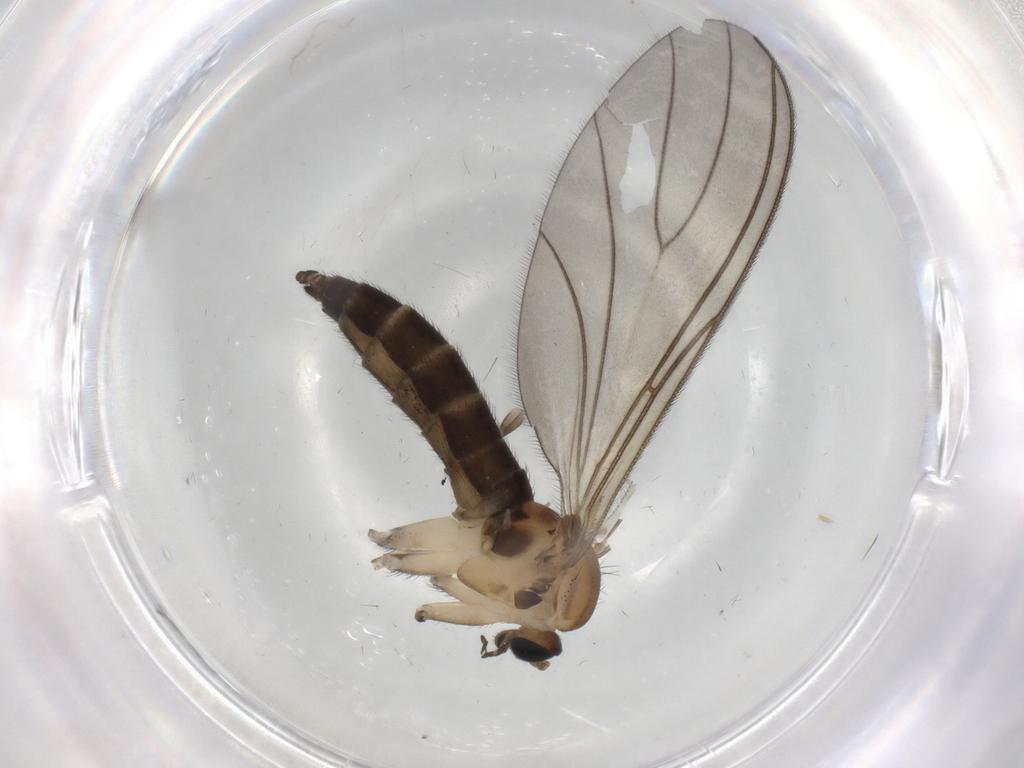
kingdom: Animalia
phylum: Arthropoda
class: Insecta
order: Diptera
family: Sciaridae
